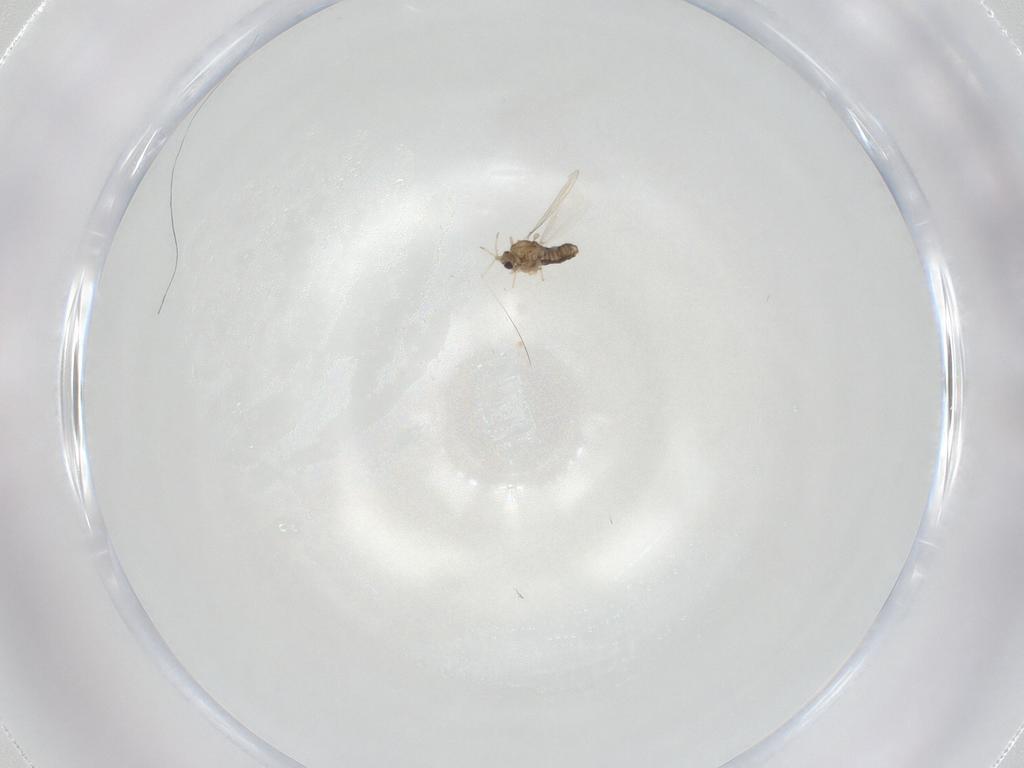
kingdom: Animalia
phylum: Arthropoda
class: Insecta
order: Diptera
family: Chironomidae
